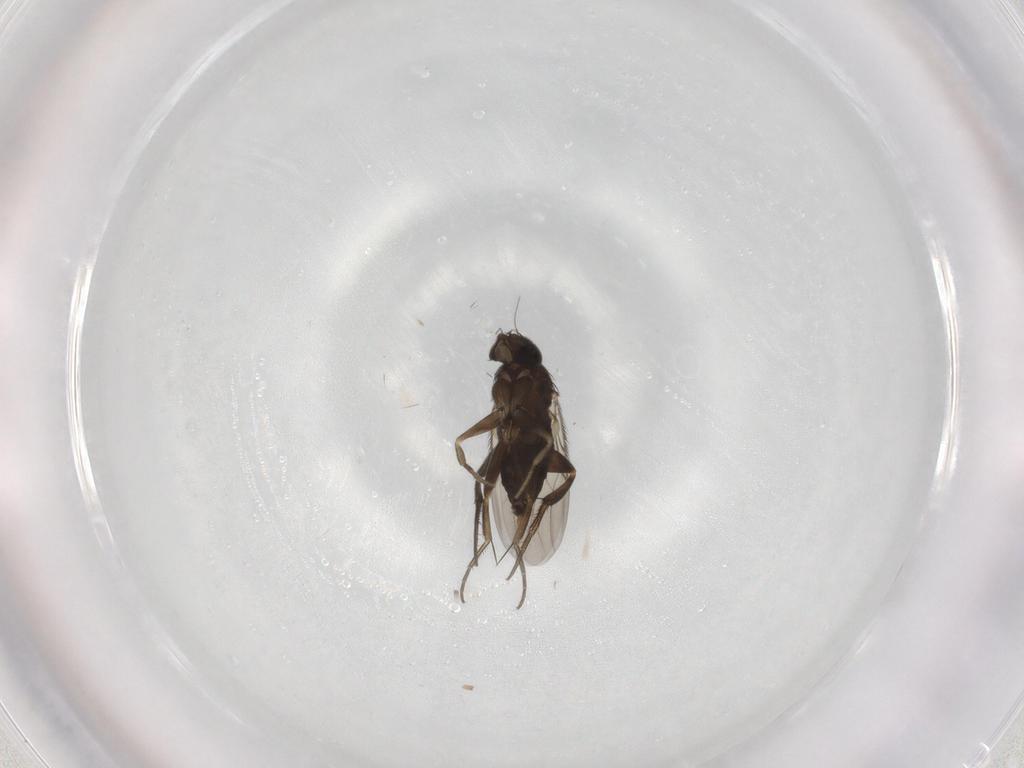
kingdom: Animalia
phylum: Arthropoda
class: Insecta
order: Diptera
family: Phoridae
